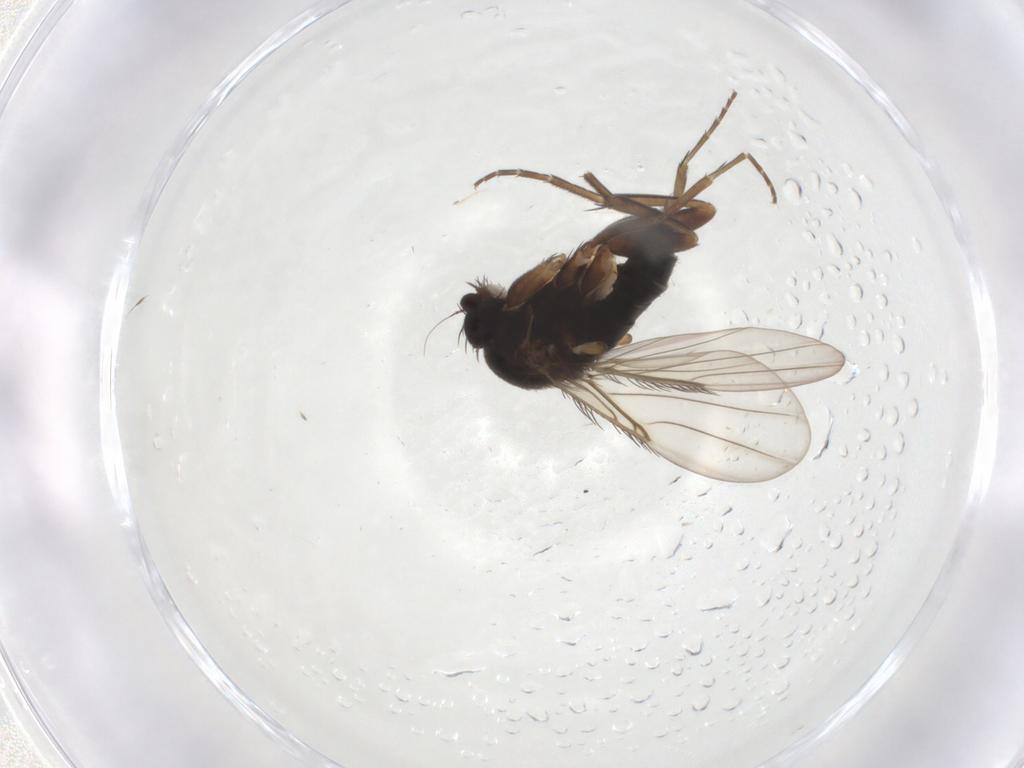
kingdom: Animalia
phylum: Arthropoda
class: Insecta
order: Diptera
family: Phoridae
